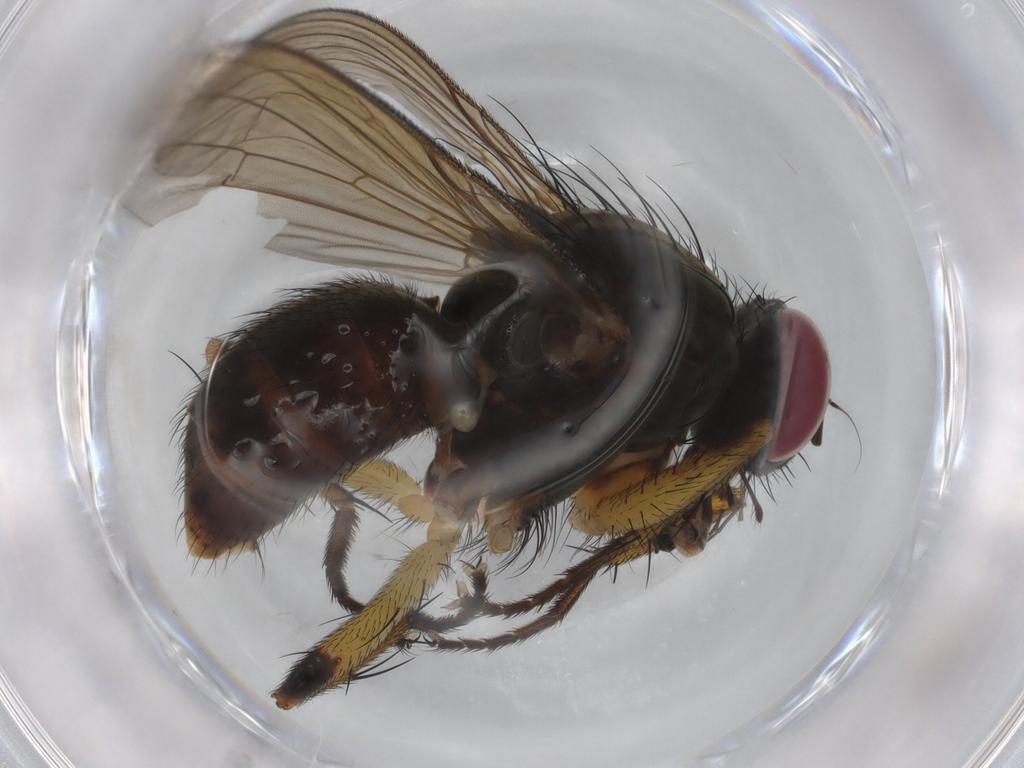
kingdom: Animalia
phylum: Arthropoda
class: Insecta
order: Diptera
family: Muscidae
